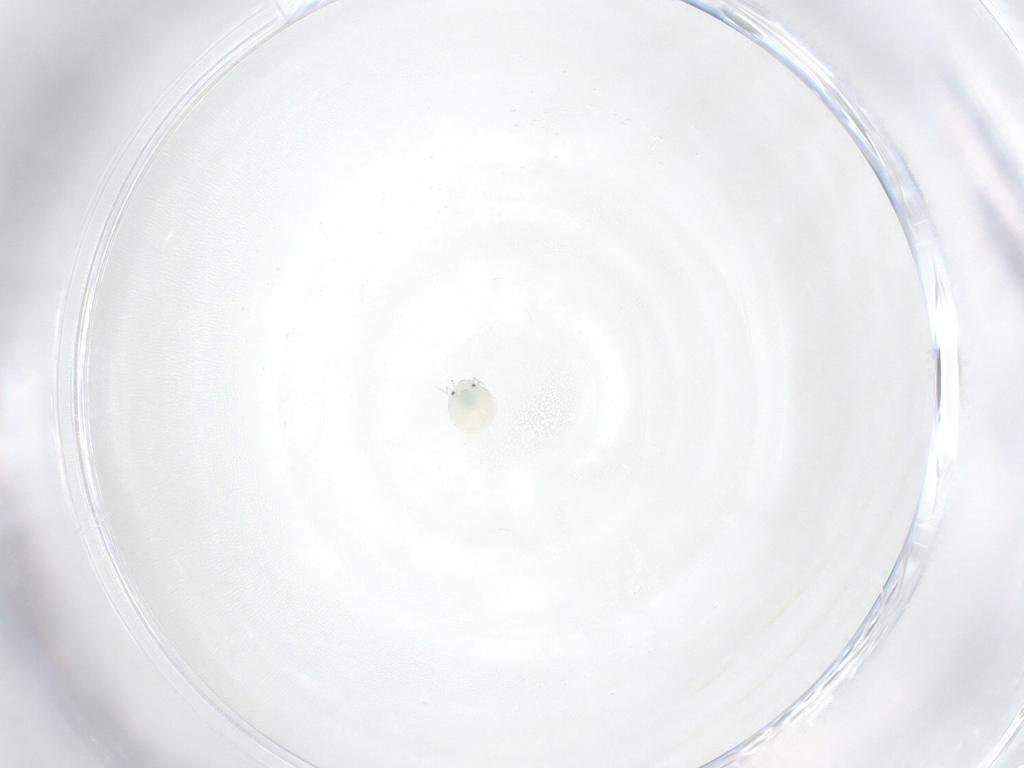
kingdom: Animalia
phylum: Arthropoda
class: Arachnida
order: Trombidiformes
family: Arrenuridae
